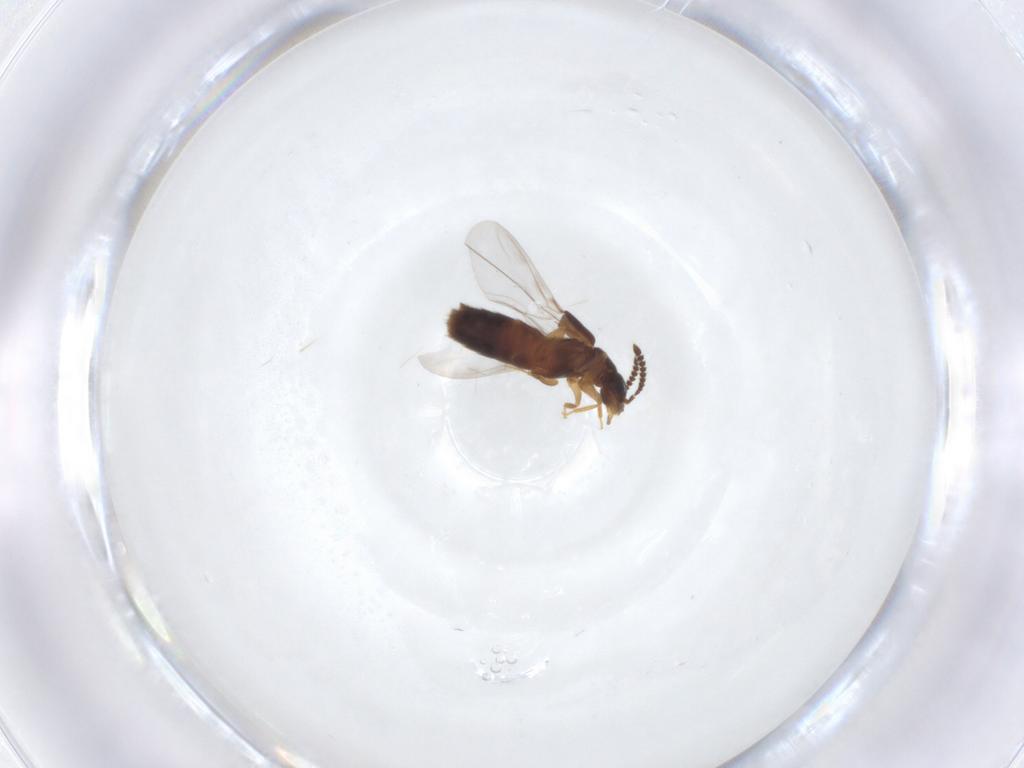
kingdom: Animalia
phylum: Arthropoda
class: Insecta
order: Coleoptera
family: Staphylinidae
